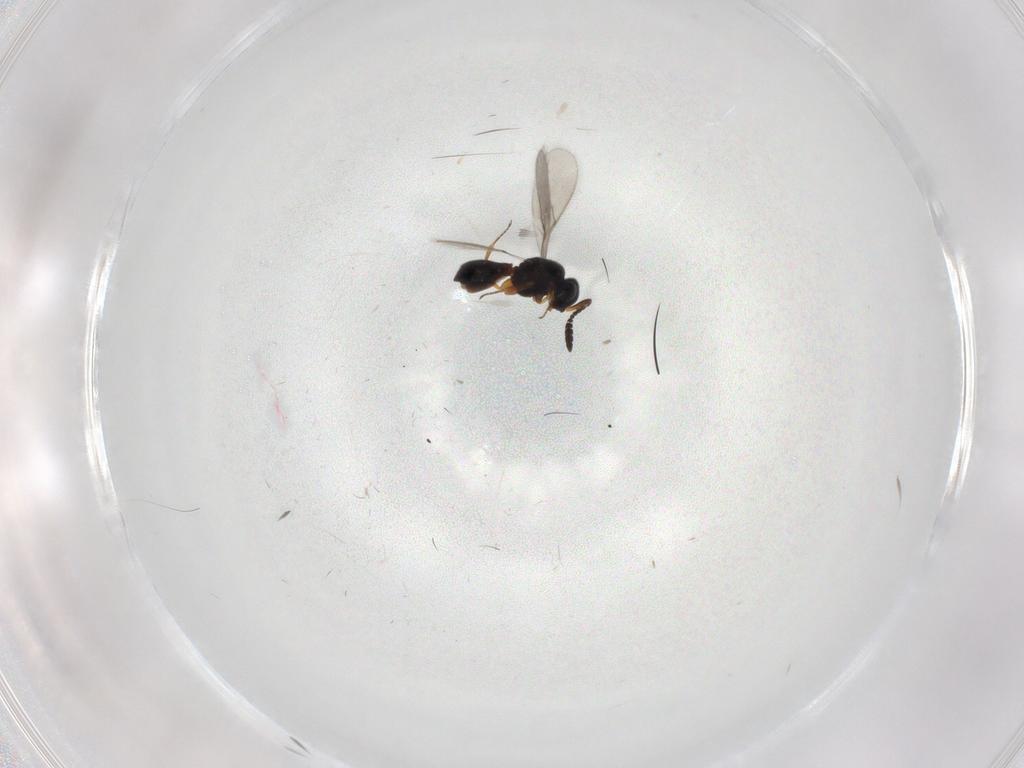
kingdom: Animalia
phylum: Arthropoda
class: Insecta
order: Hymenoptera
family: Scelionidae
